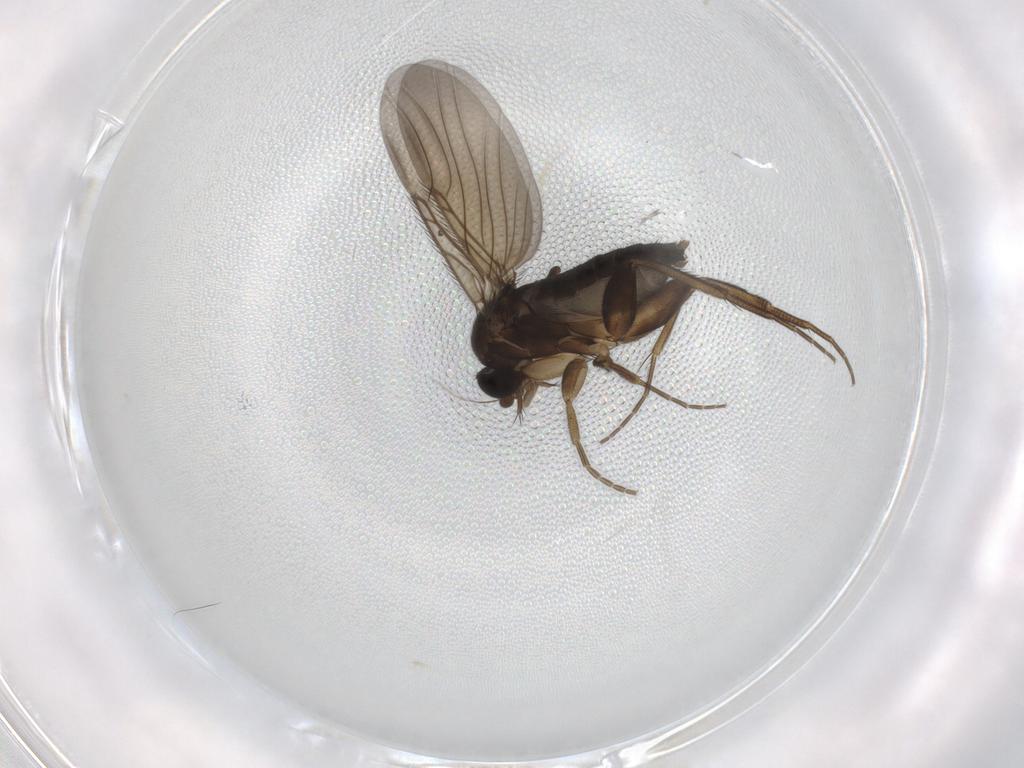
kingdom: Animalia
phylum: Arthropoda
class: Insecta
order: Diptera
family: Phoridae
